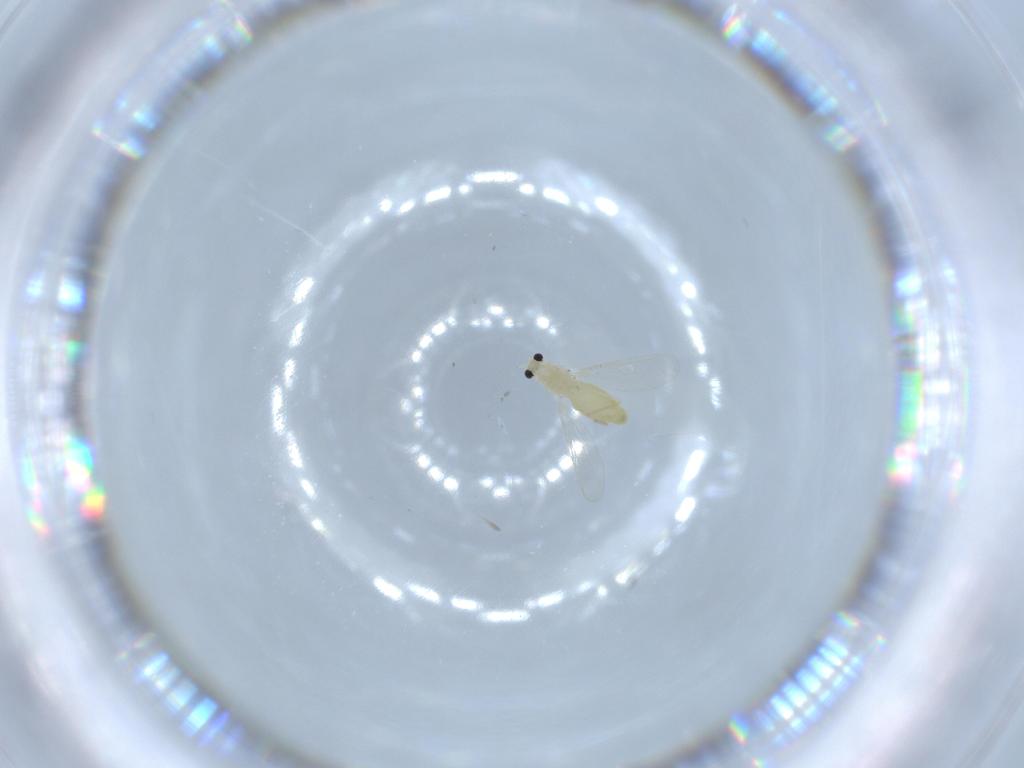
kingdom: Animalia
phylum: Arthropoda
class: Insecta
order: Diptera
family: Chironomidae
